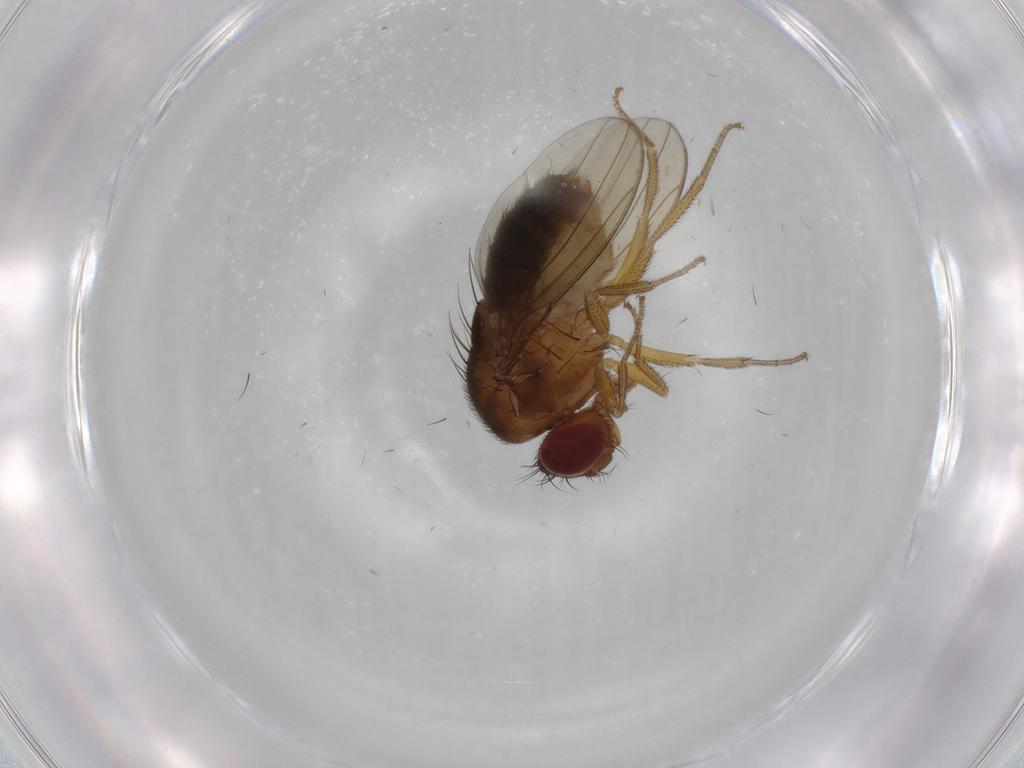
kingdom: Animalia
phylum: Arthropoda
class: Insecta
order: Diptera
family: Drosophilidae
